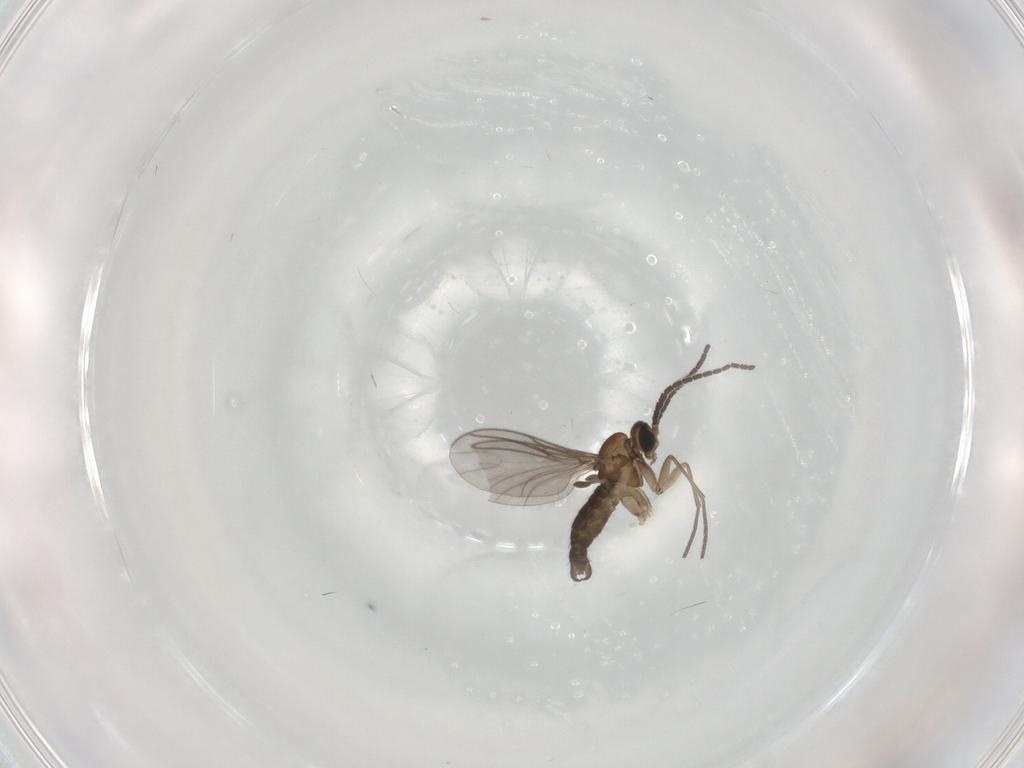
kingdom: Animalia
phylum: Arthropoda
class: Insecta
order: Diptera
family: Sciaridae
